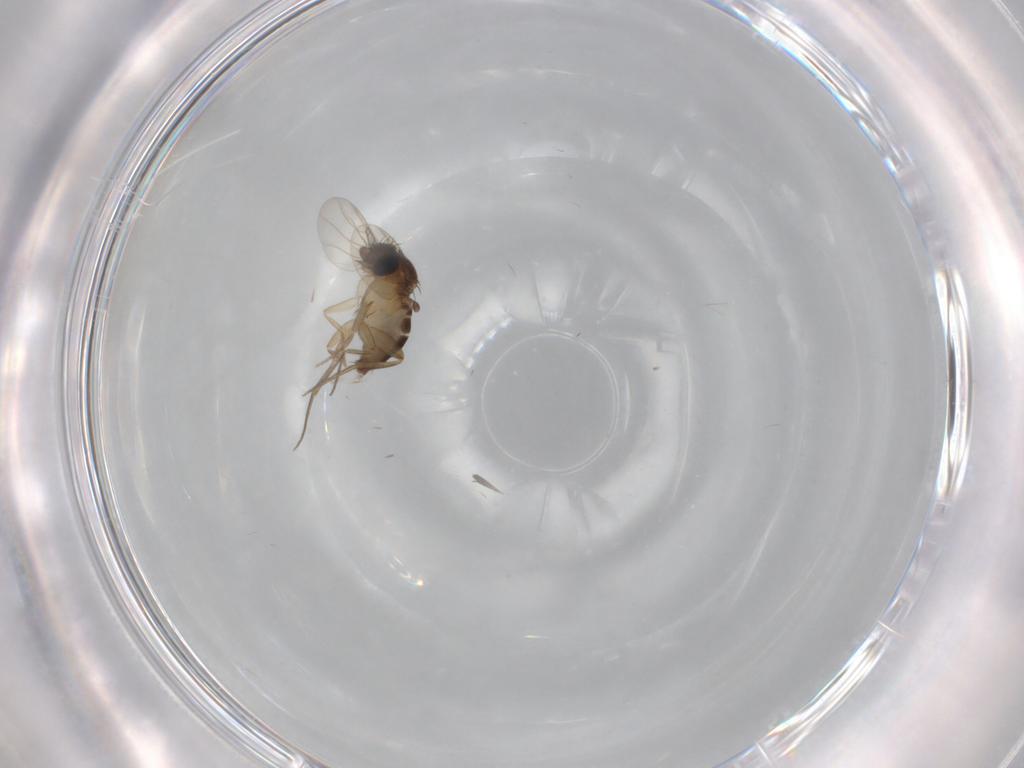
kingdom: Animalia
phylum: Arthropoda
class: Insecta
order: Diptera
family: Phoridae
